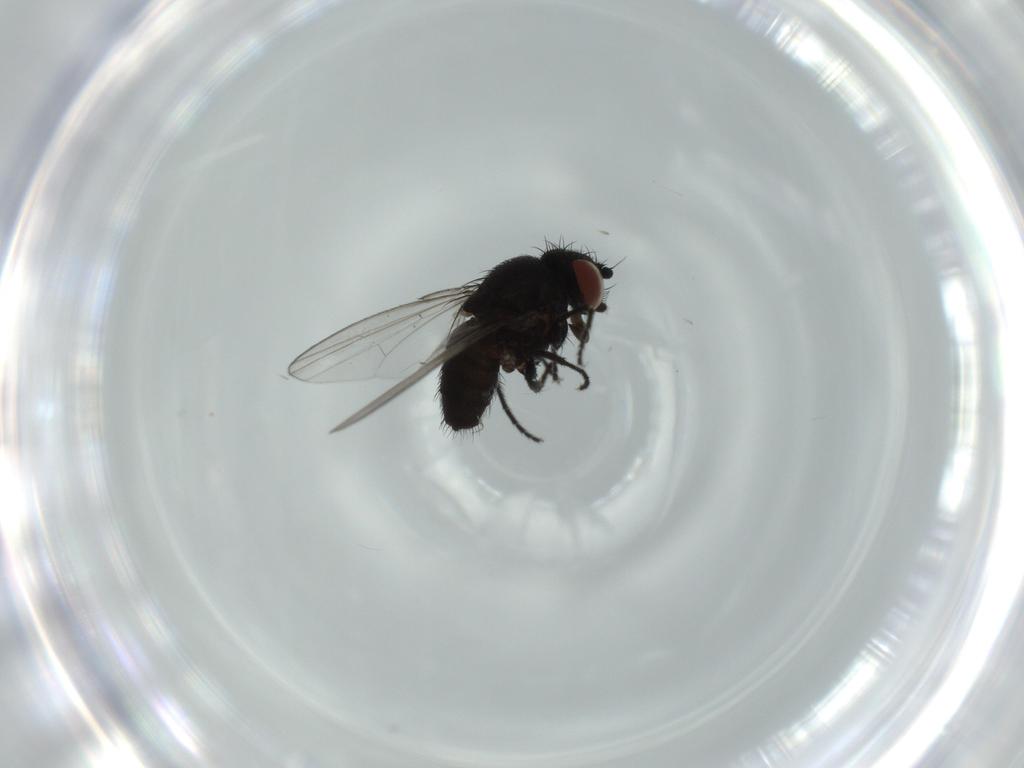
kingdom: Animalia
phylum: Arthropoda
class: Insecta
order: Diptera
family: Milichiidae
